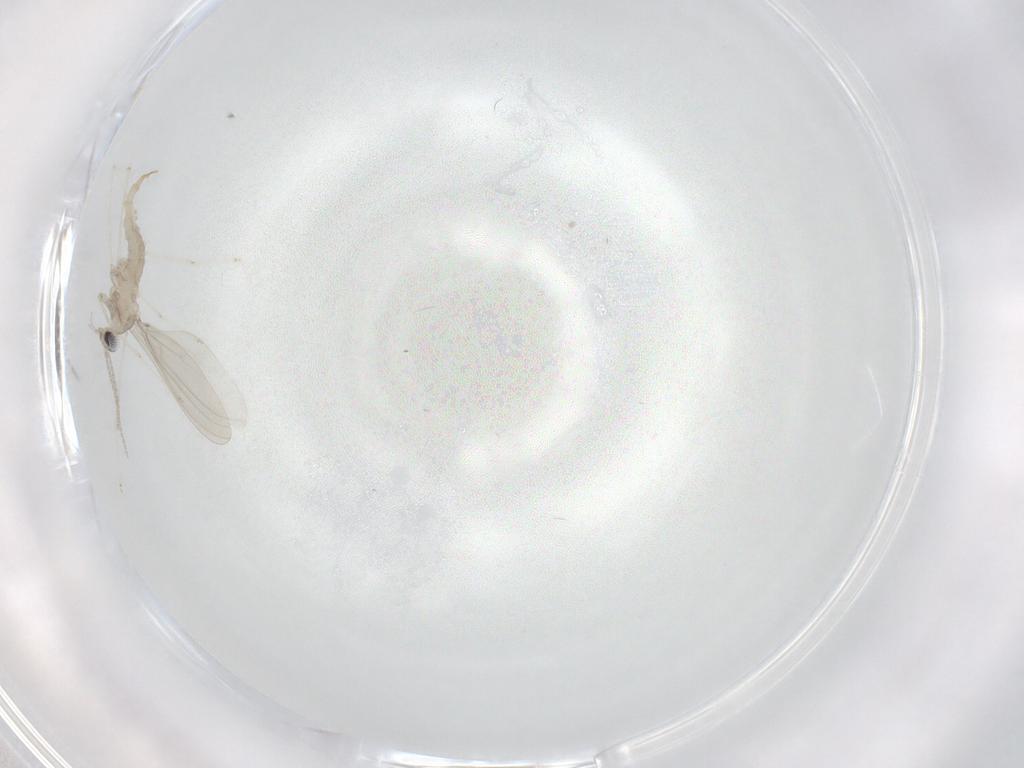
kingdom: Animalia
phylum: Arthropoda
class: Insecta
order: Diptera
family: Cecidomyiidae
